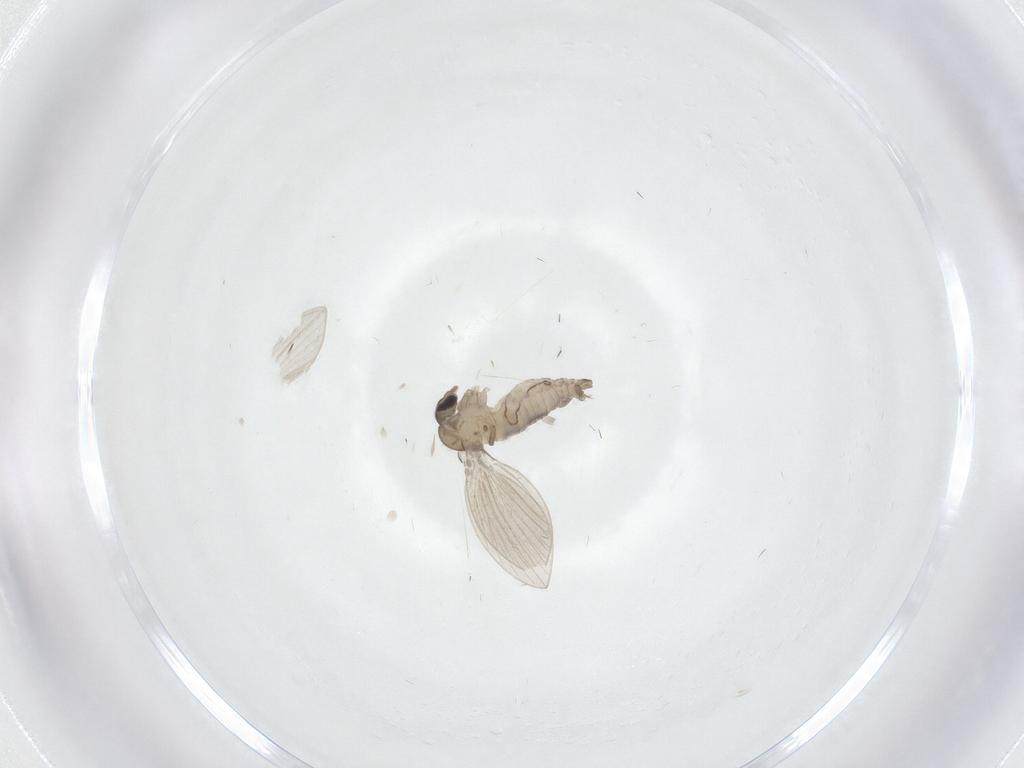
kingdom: Animalia
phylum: Arthropoda
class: Insecta
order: Diptera
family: Psychodidae
